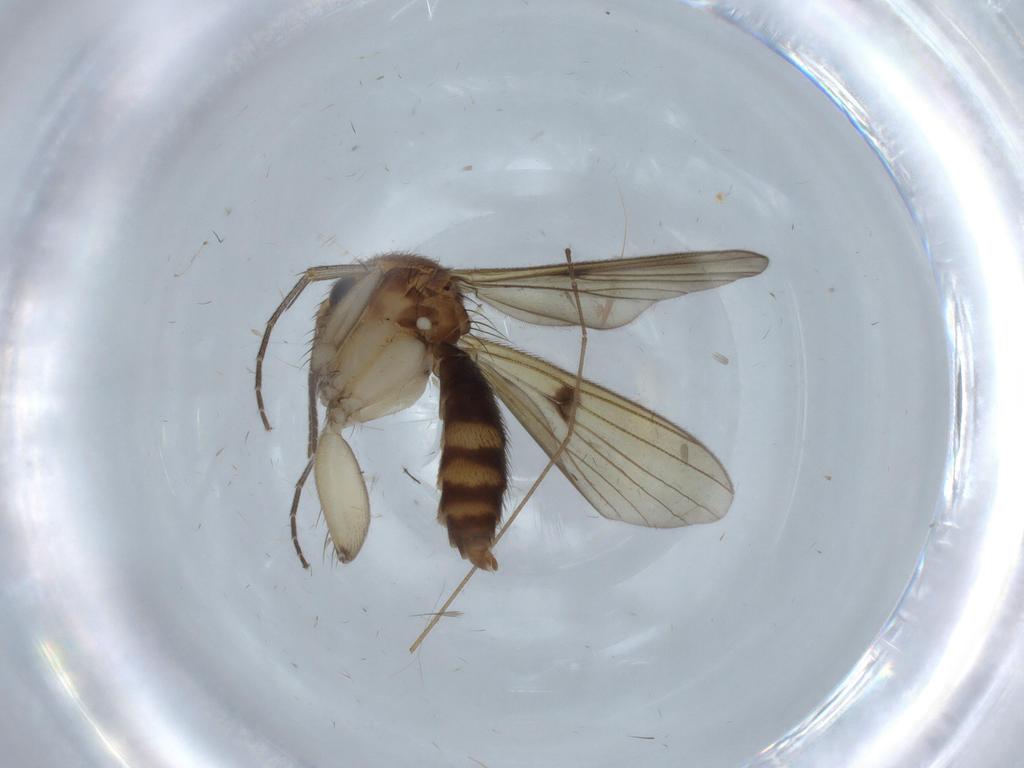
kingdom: Animalia
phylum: Arthropoda
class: Insecta
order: Diptera
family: Mycetophilidae
